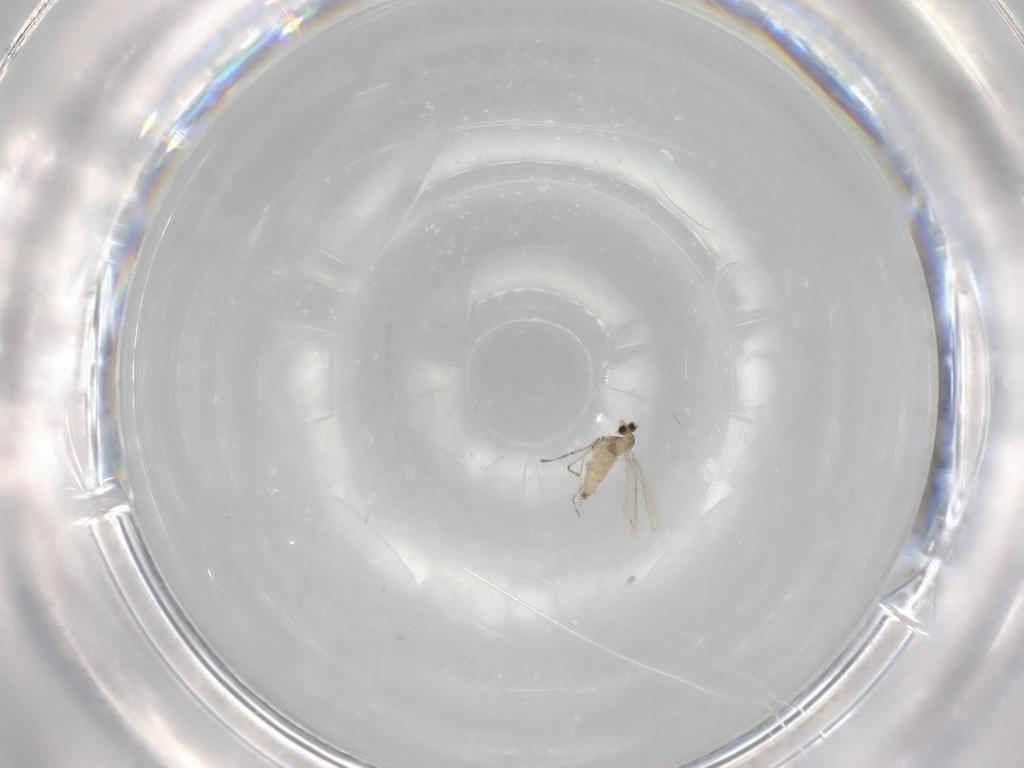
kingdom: Animalia
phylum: Arthropoda
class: Insecta
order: Diptera
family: Cecidomyiidae
